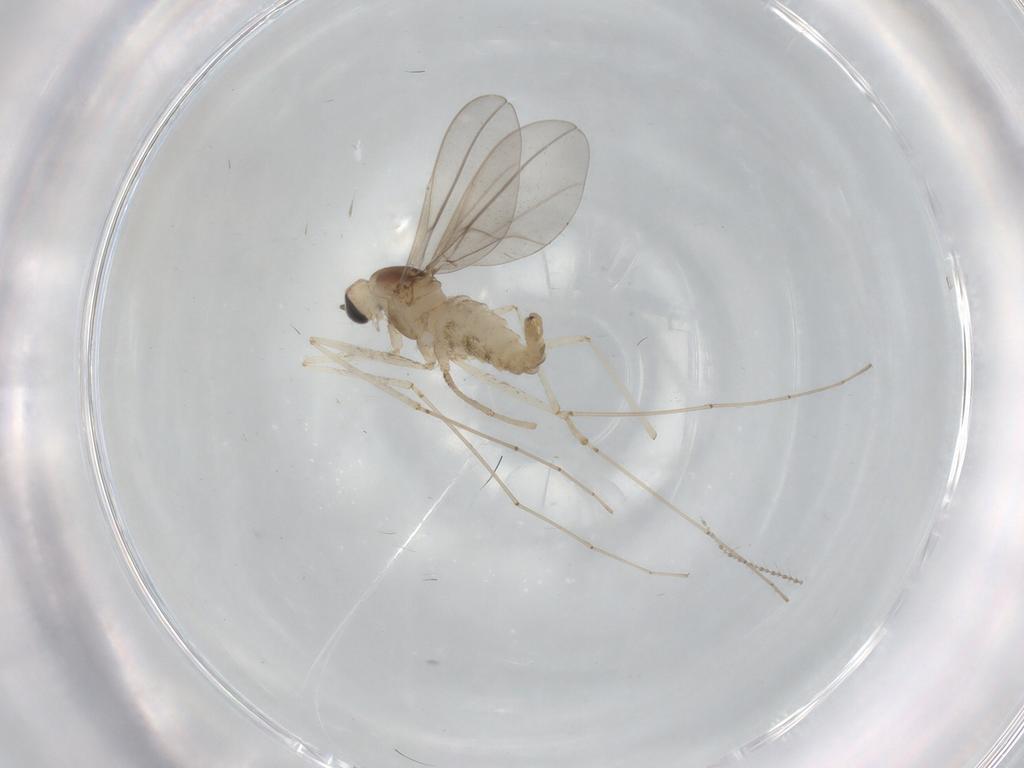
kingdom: Animalia
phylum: Arthropoda
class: Insecta
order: Diptera
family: Cecidomyiidae
